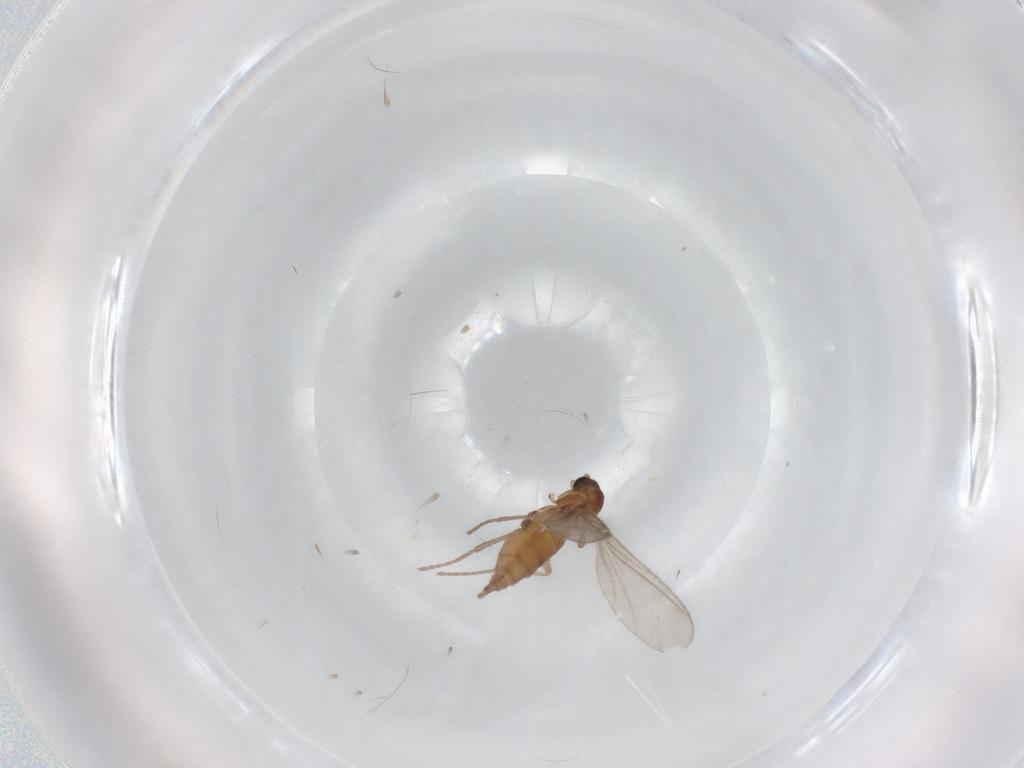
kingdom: Animalia
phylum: Arthropoda
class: Insecta
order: Diptera
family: Sciaridae
